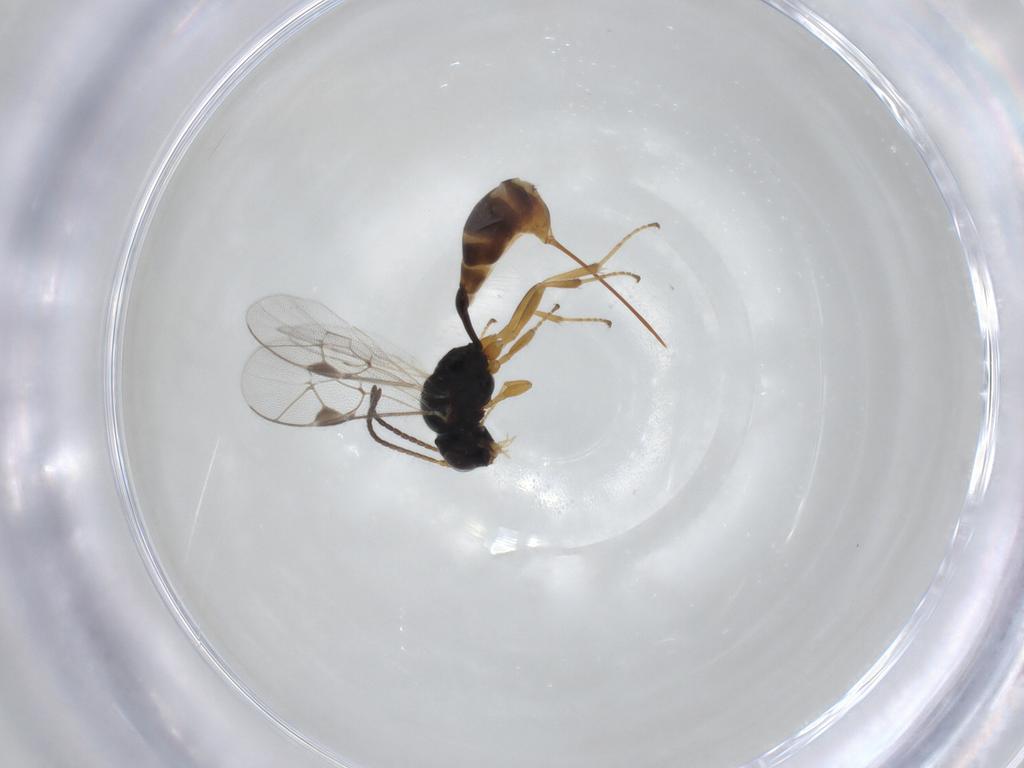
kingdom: Animalia
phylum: Arthropoda
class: Insecta
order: Hymenoptera
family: Ichneumonidae
